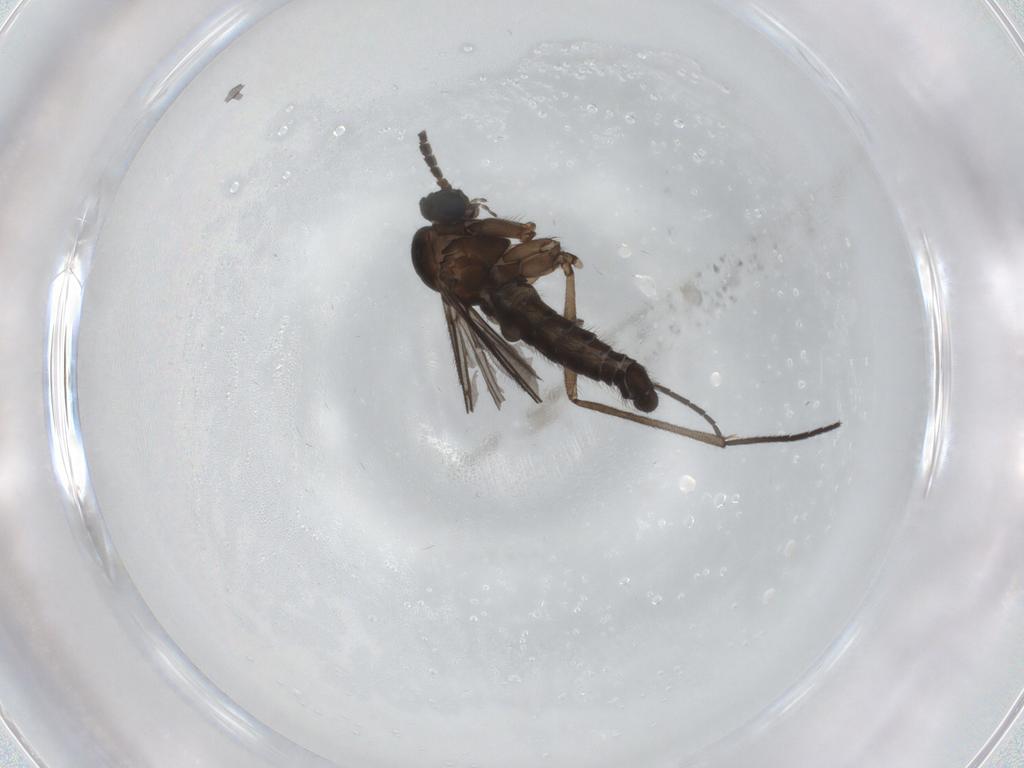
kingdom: Animalia
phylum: Arthropoda
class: Insecta
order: Diptera
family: Sciaridae
